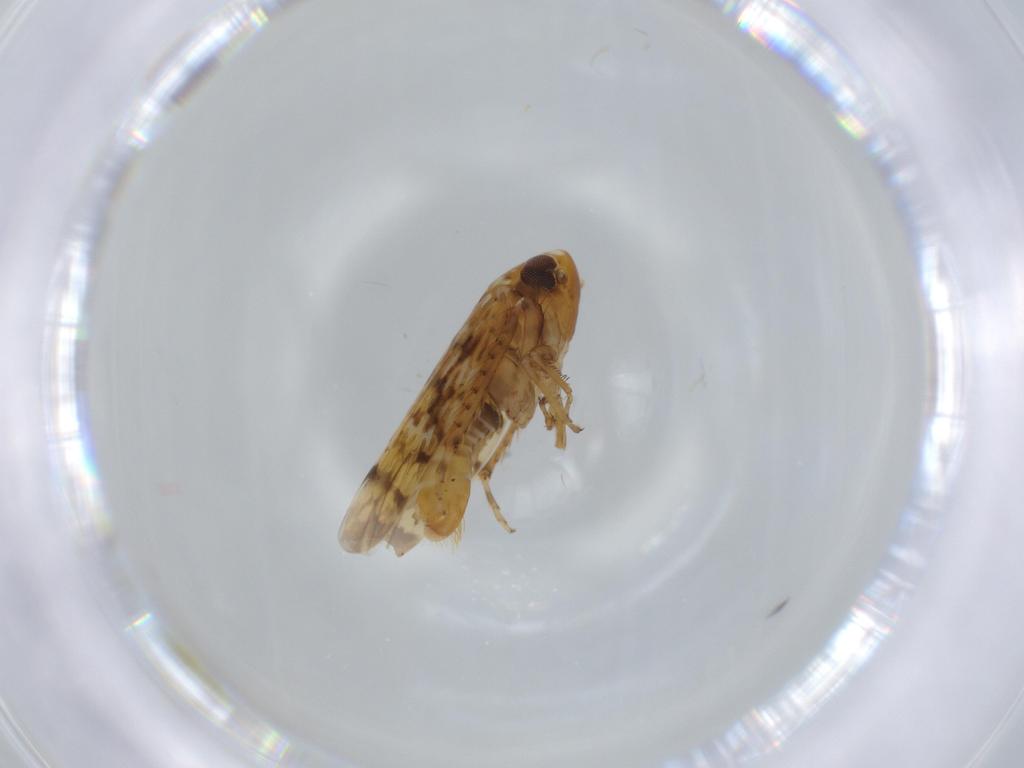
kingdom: Animalia
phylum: Arthropoda
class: Insecta
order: Hemiptera
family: Cicadellidae
